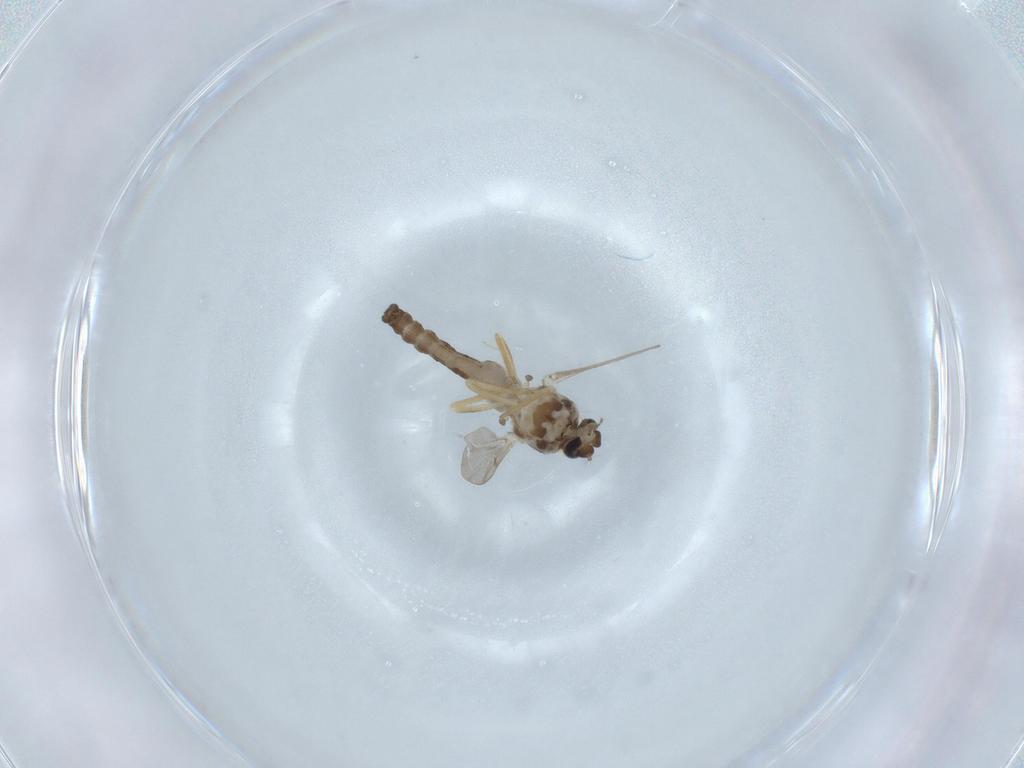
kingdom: Animalia
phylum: Arthropoda
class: Insecta
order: Diptera
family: Ceratopogonidae
